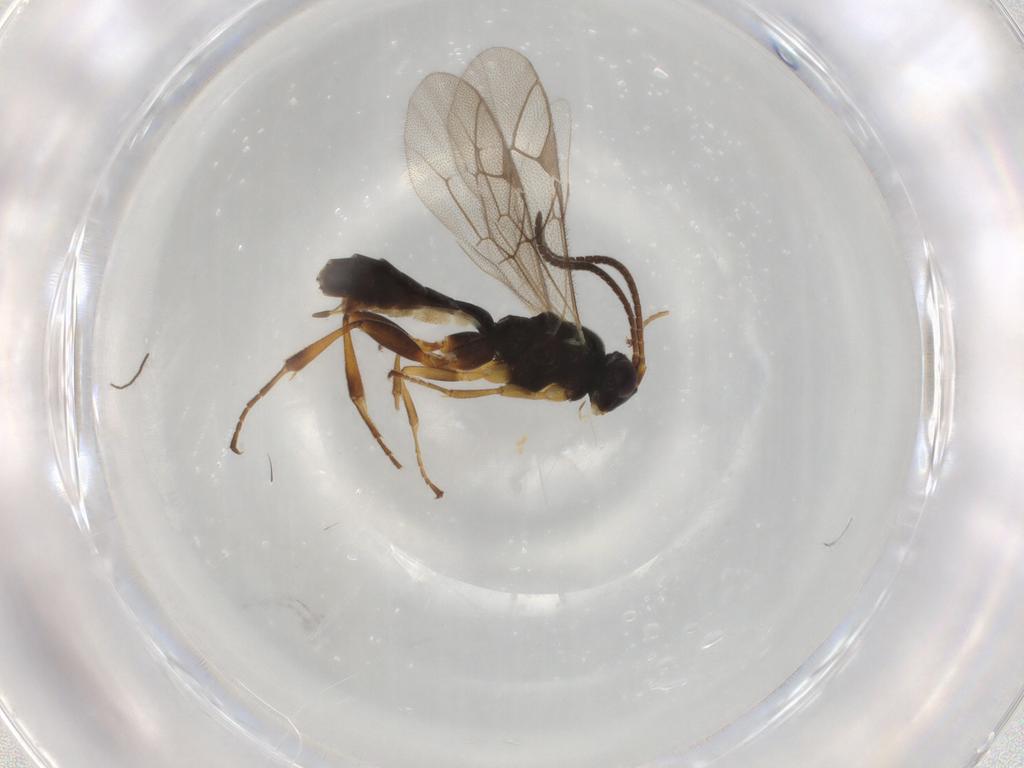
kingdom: Animalia
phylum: Arthropoda
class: Insecta
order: Hymenoptera
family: Ichneumonidae
